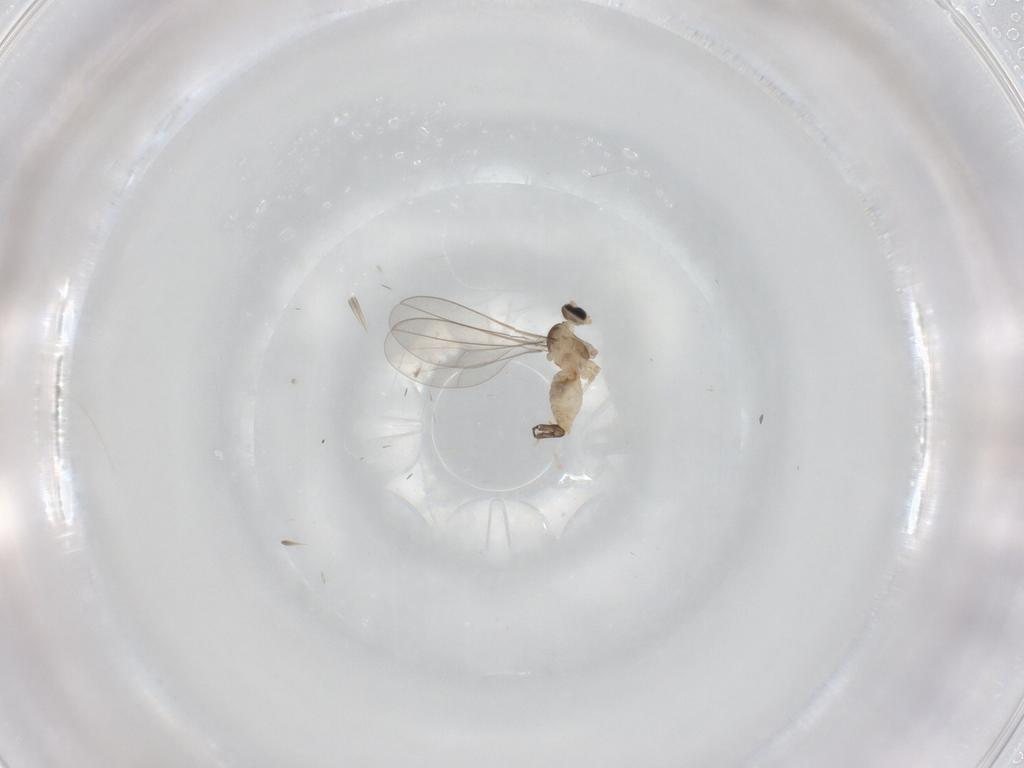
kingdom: Animalia
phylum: Arthropoda
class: Insecta
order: Diptera
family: Cecidomyiidae
